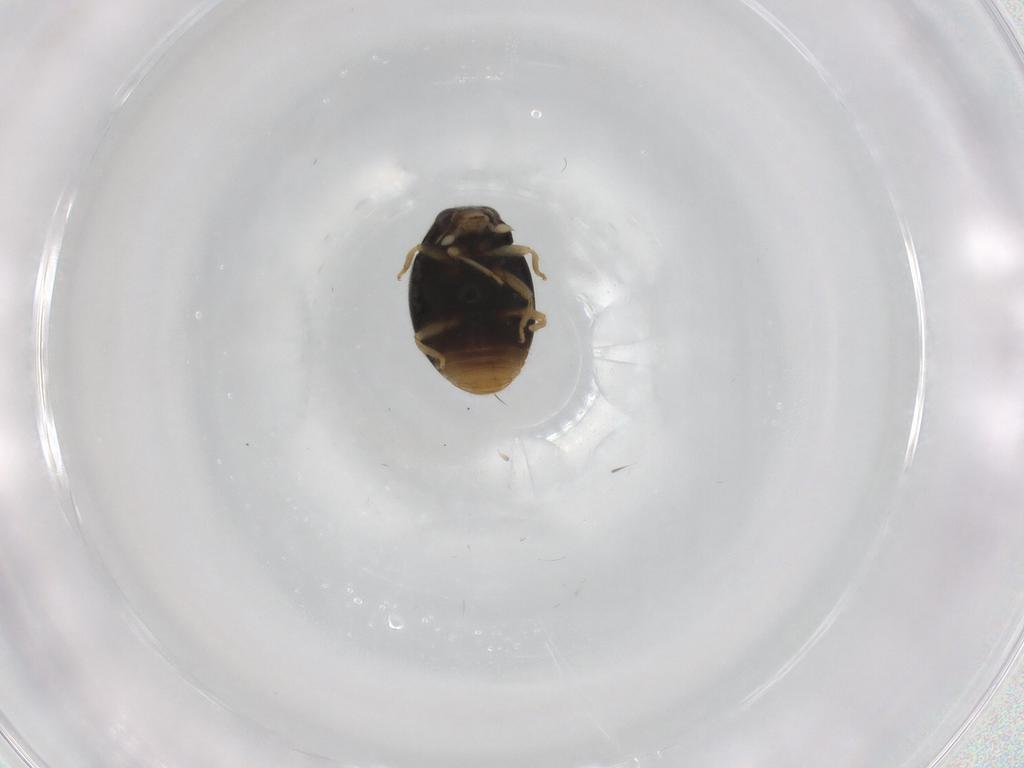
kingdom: Animalia
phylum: Arthropoda
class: Insecta
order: Coleoptera
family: Coccinellidae
